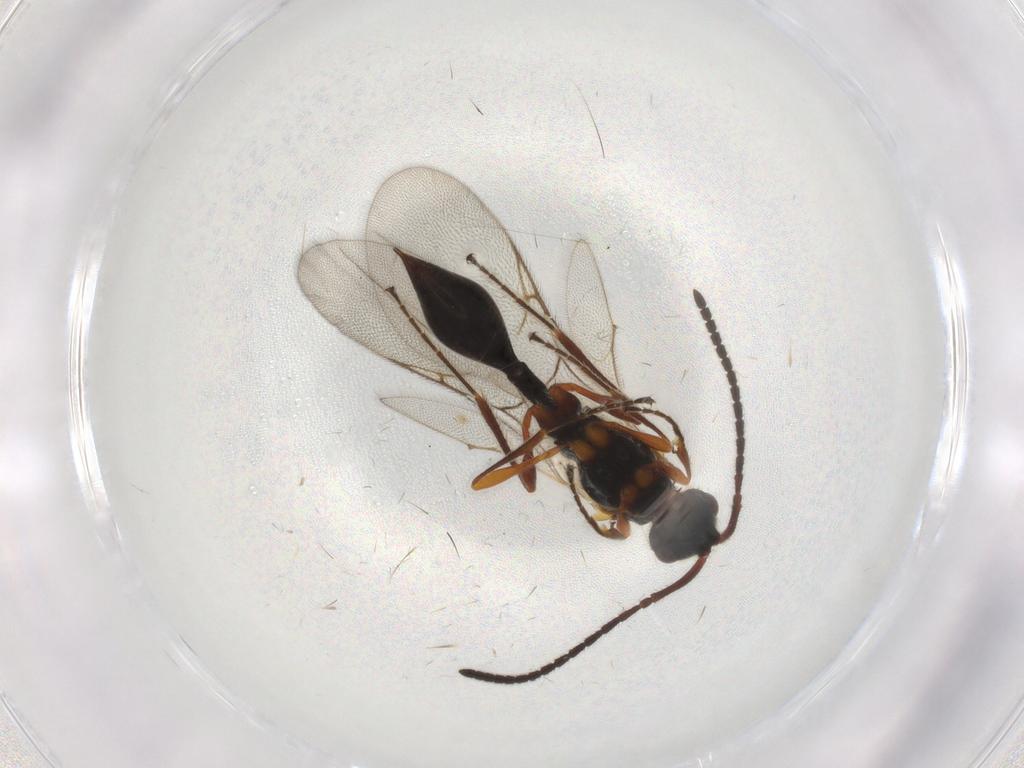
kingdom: Animalia
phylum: Arthropoda
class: Insecta
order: Hymenoptera
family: Diapriidae
